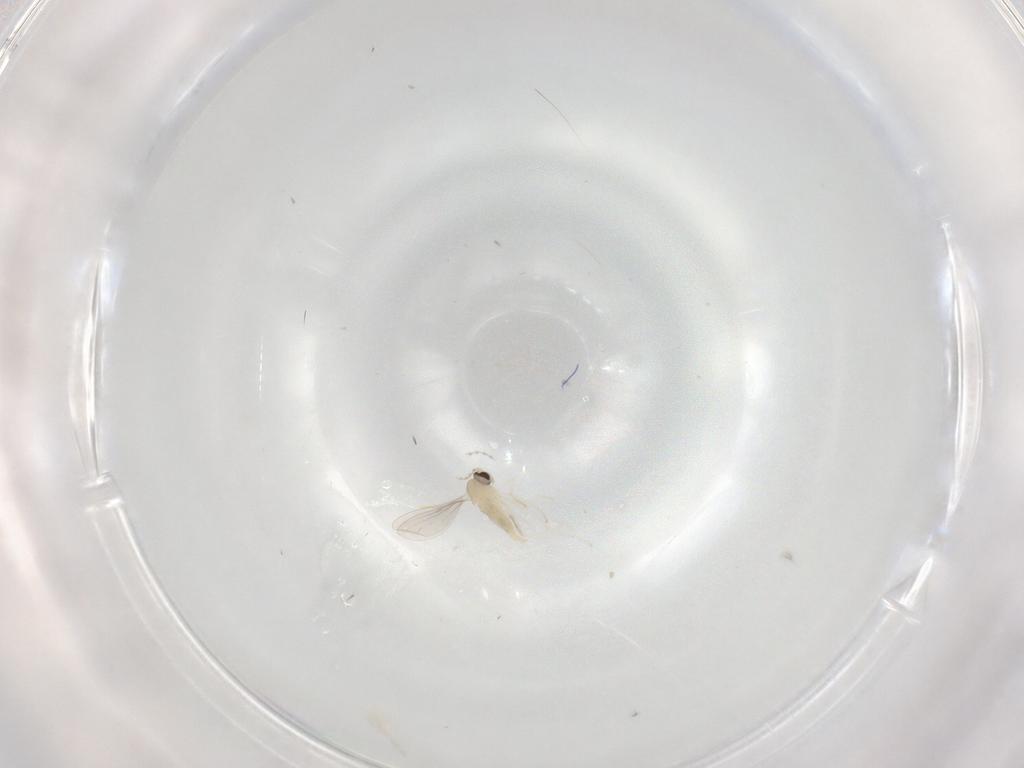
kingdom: Animalia
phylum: Arthropoda
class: Insecta
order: Diptera
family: Cecidomyiidae
